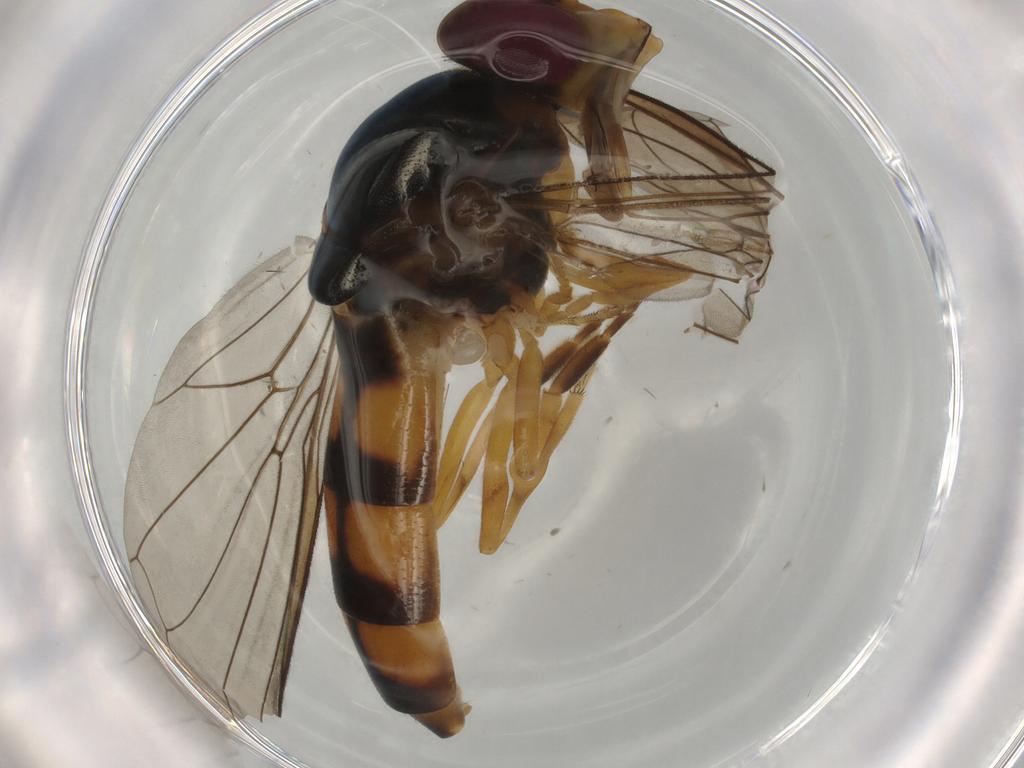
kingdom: Animalia
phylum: Arthropoda
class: Insecta
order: Diptera
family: Syrphidae
